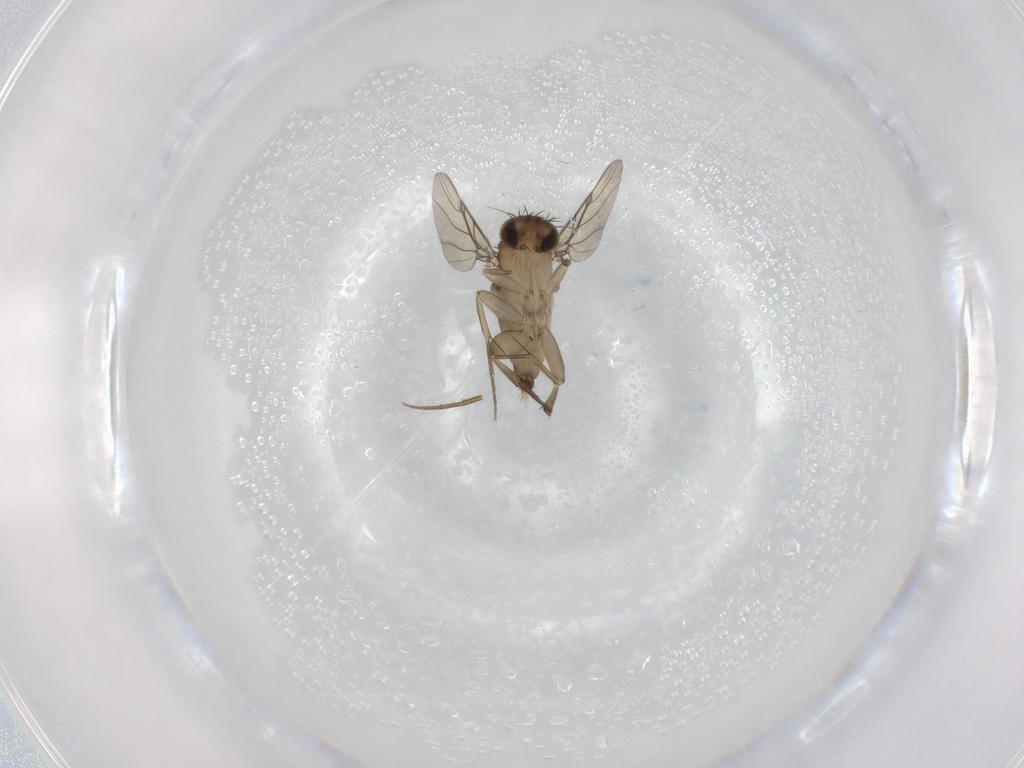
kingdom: Animalia
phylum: Arthropoda
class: Insecta
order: Diptera
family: Phoridae
